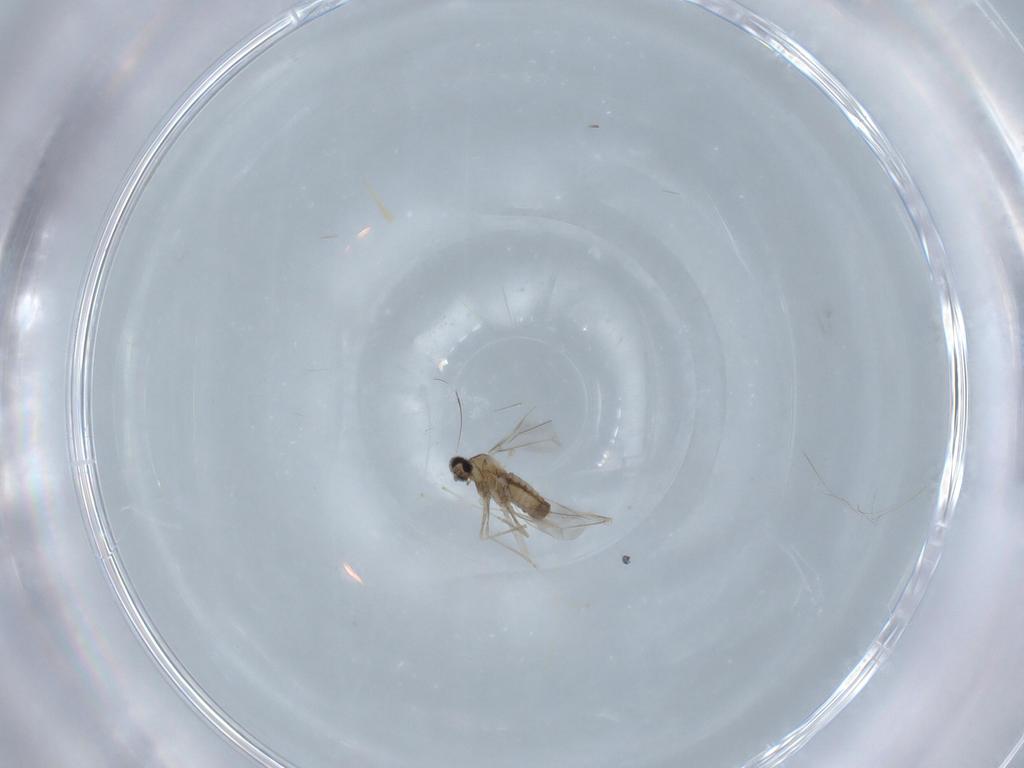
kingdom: Animalia
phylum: Arthropoda
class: Insecta
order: Diptera
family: Cecidomyiidae
